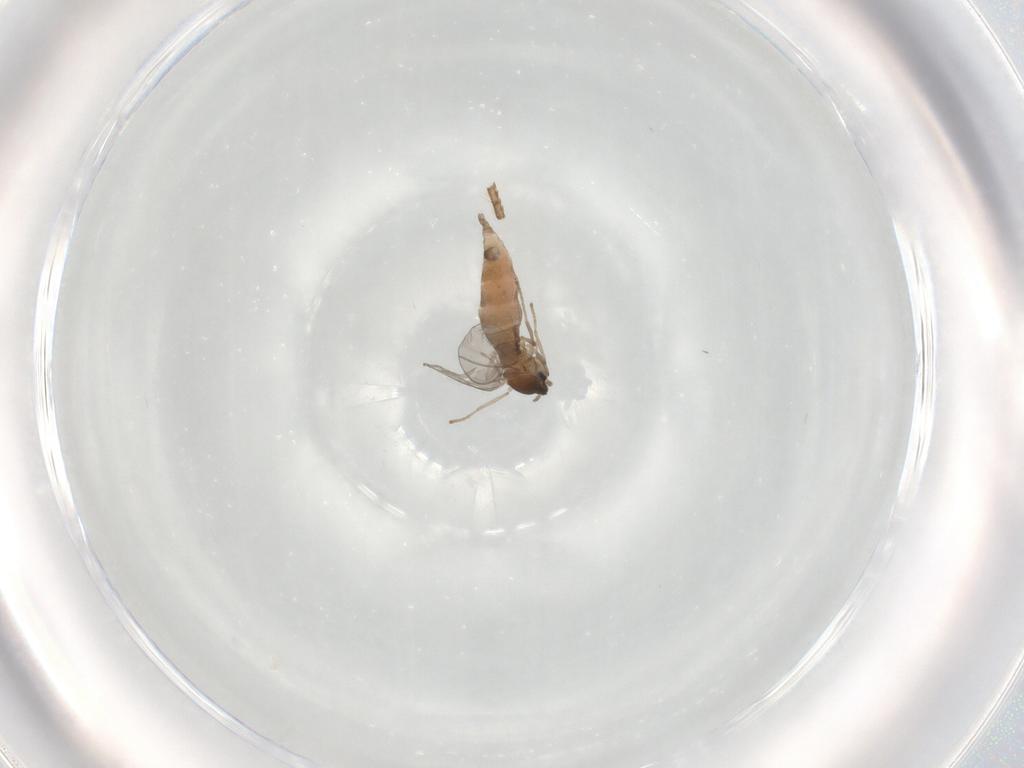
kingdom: Animalia
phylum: Arthropoda
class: Insecta
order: Diptera
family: Cecidomyiidae
